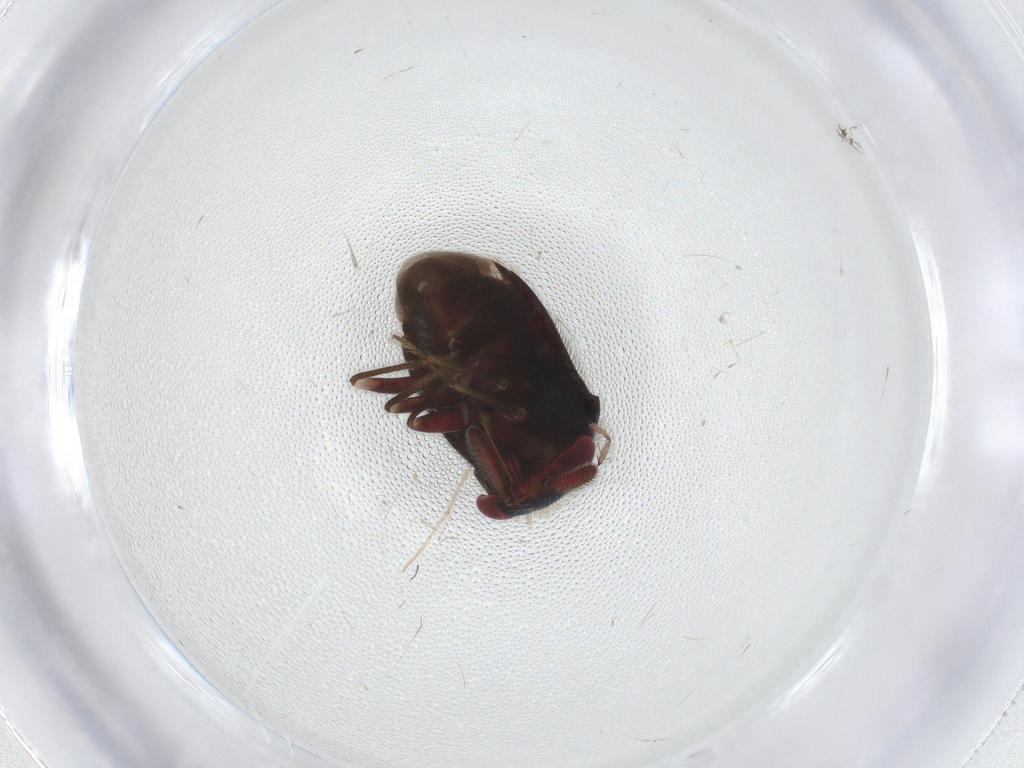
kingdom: Animalia
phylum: Arthropoda
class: Insecta
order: Hemiptera
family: Miridae
